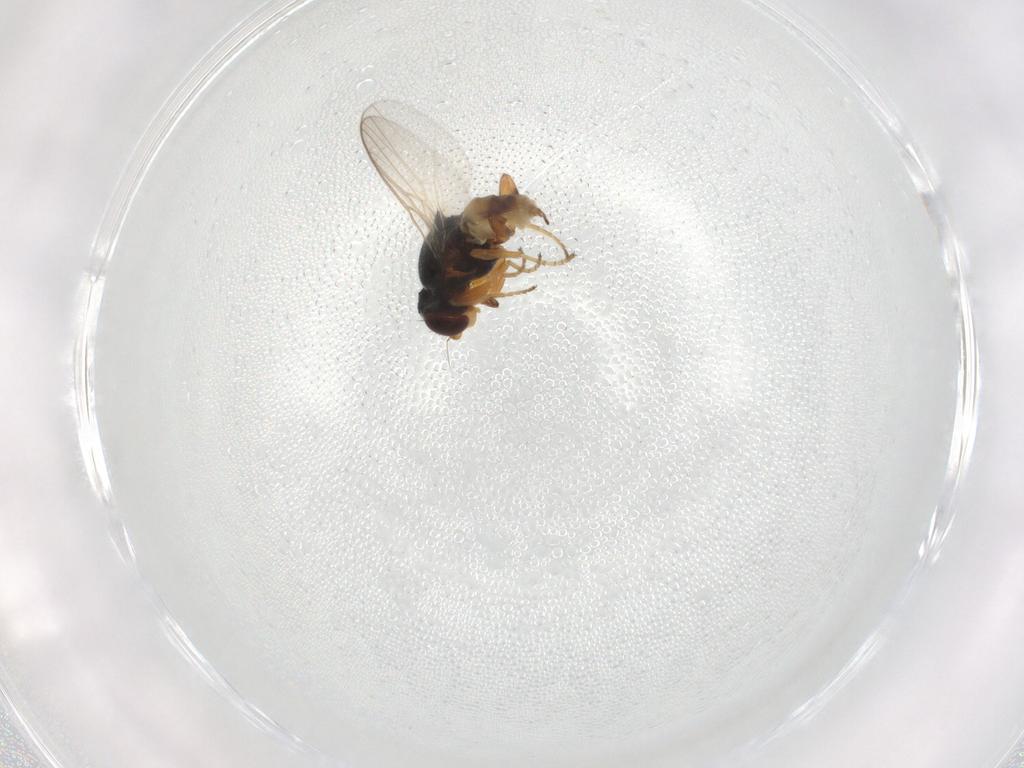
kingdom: Animalia
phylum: Arthropoda
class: Insecta
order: Diptera
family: Chloropidae
